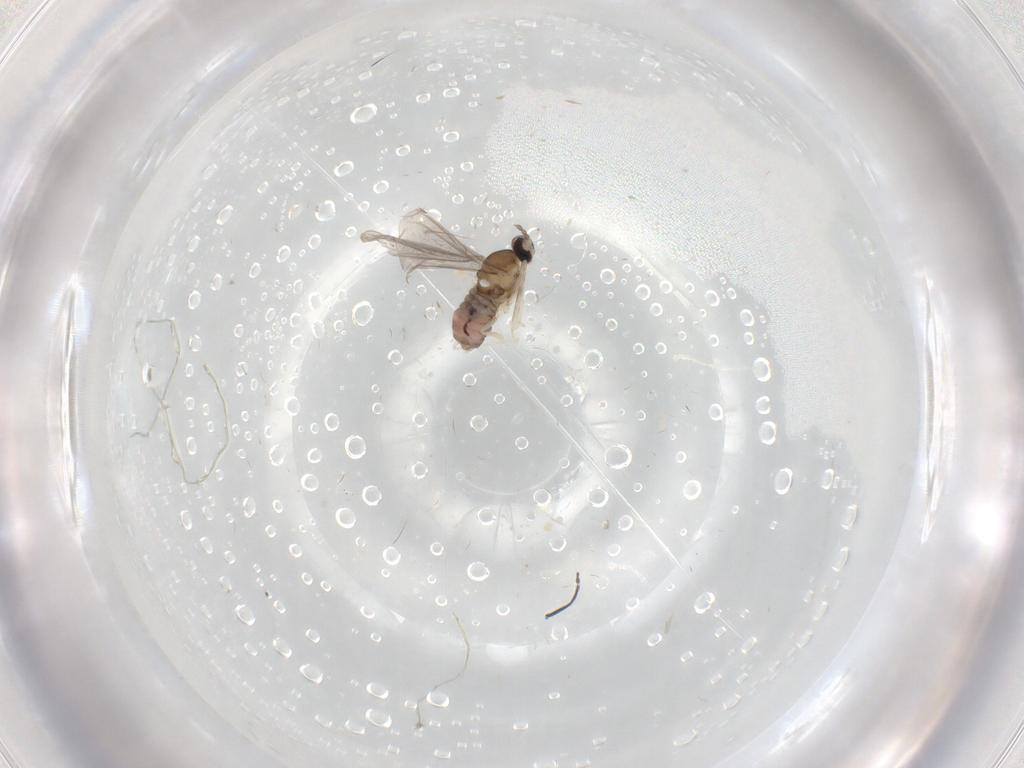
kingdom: Animalia
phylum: Arthropoda
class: Insecta
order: Diptera
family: Cecidomyiidae
